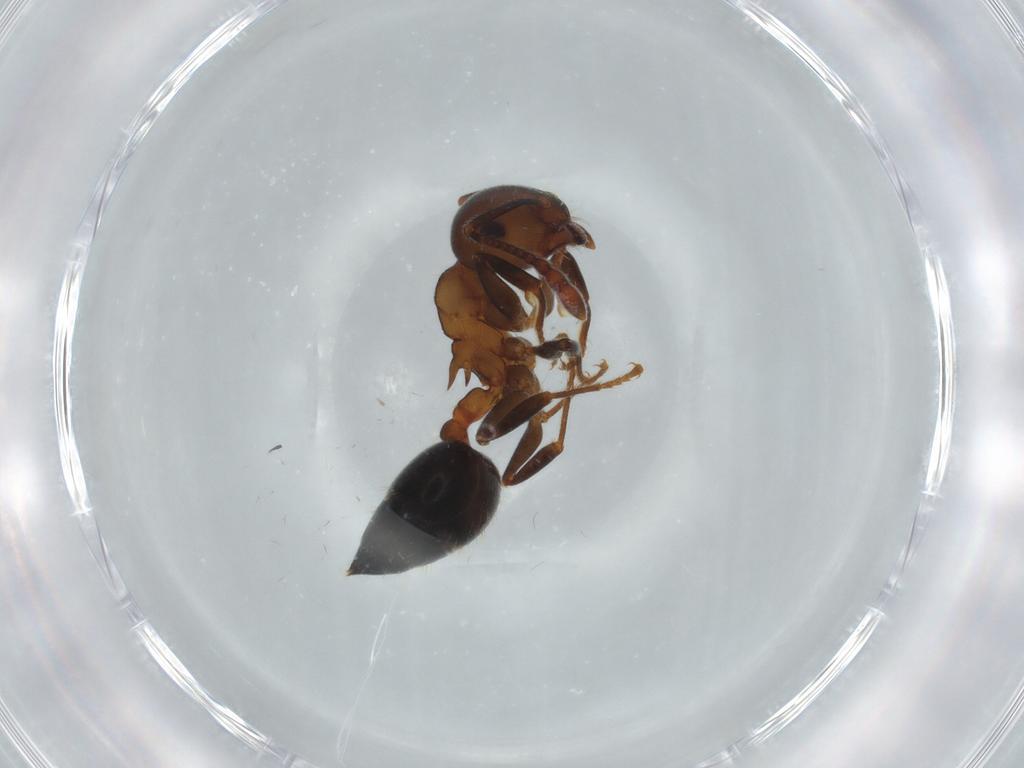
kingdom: Animalia
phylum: Arthropoda
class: Insecta
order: Hymenoptera
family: Formicidae
